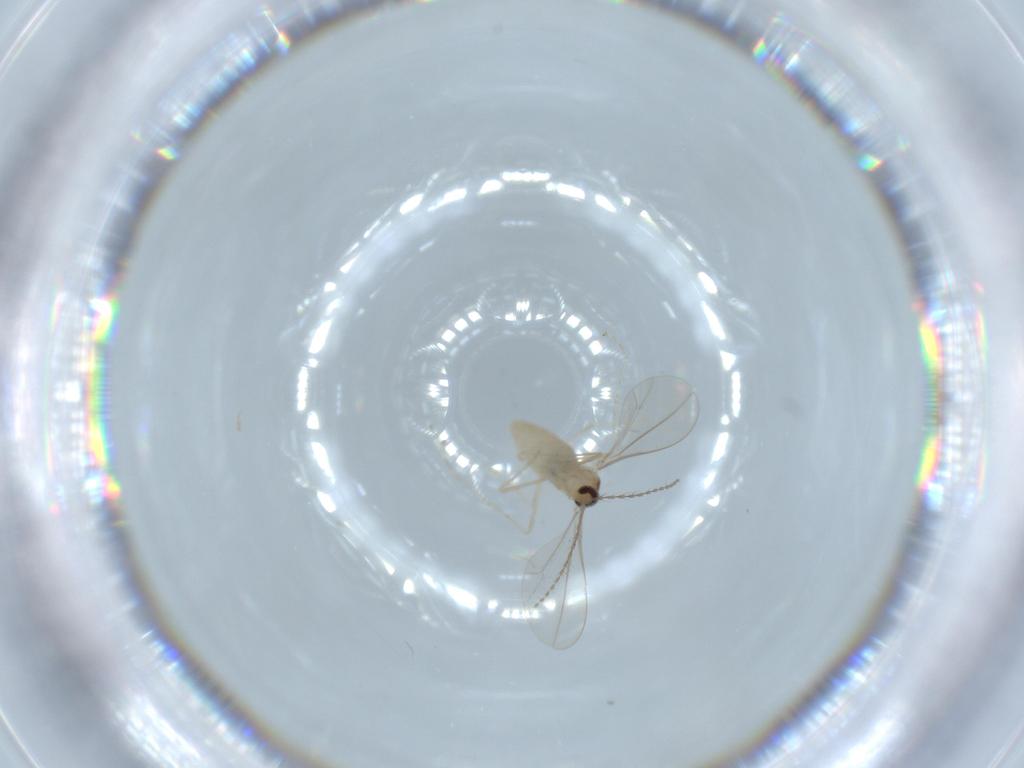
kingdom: Animalia
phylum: Arthropoda
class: Insecta
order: Diptera
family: Cecidomyiidae
